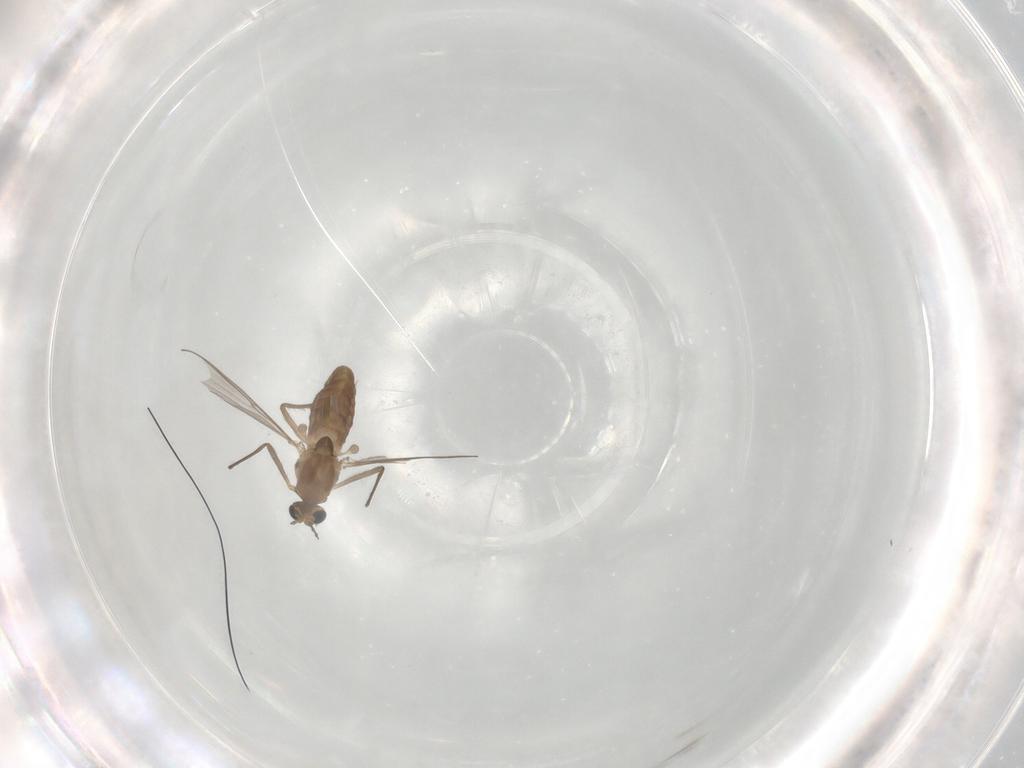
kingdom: Animalia
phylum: Arthropoda
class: Insecta
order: Diptera
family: Chironomidae
